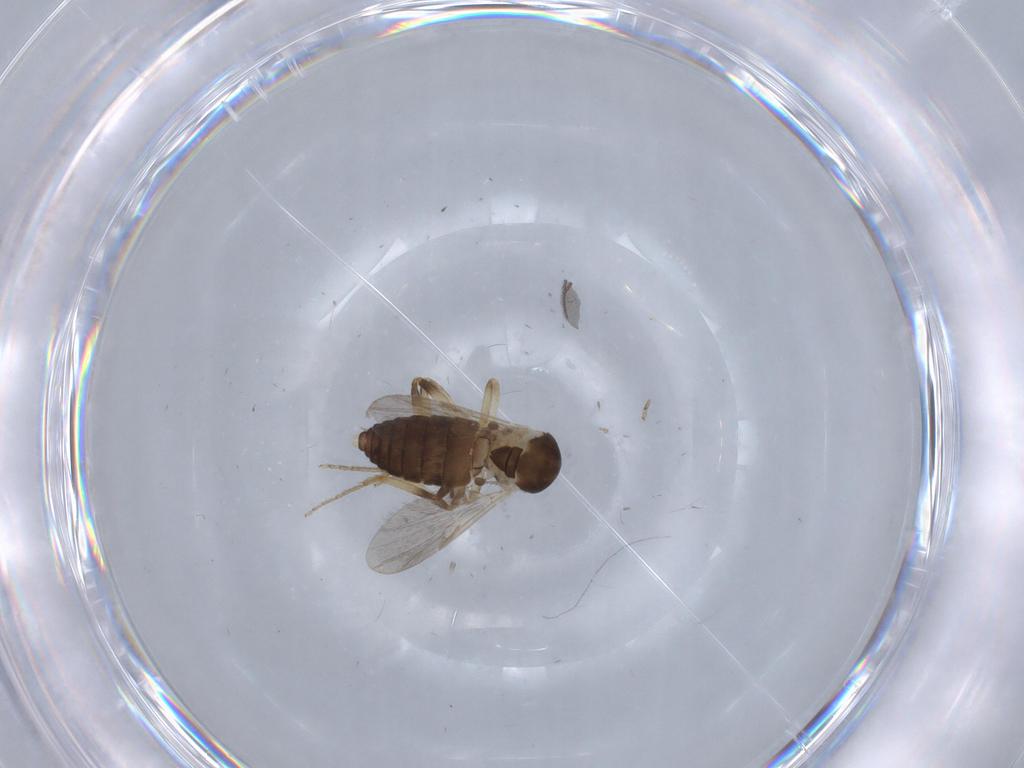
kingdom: Animalia
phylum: Arthropoda
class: Insecta
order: Diptera
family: Ceratopogonidae
